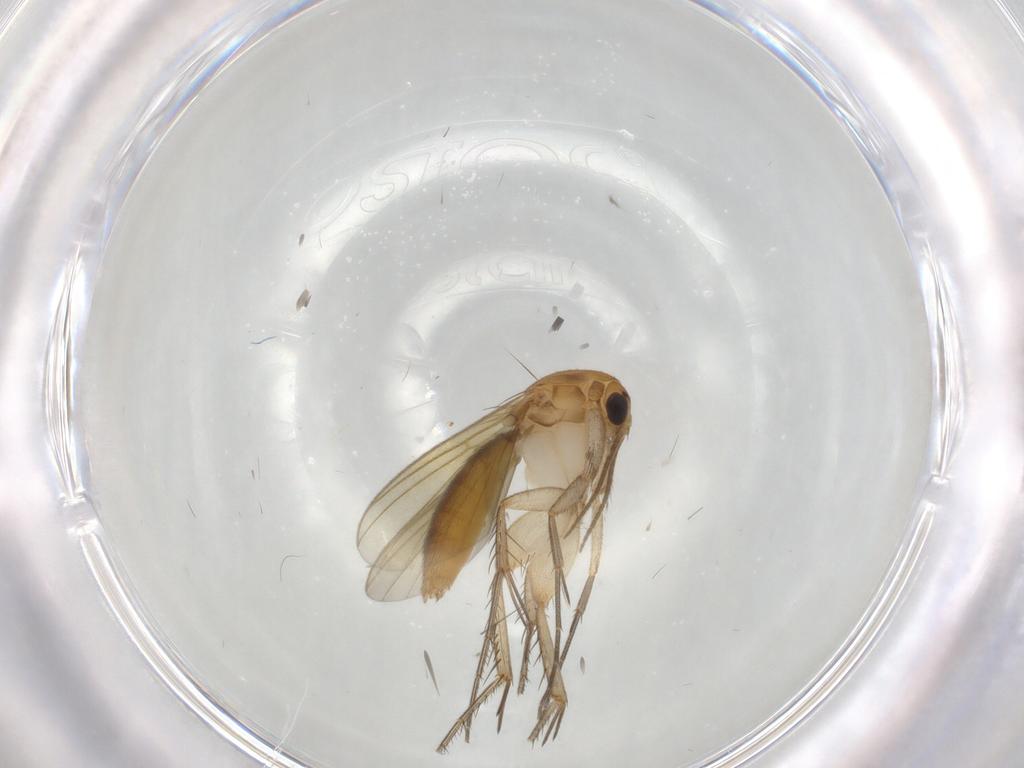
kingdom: Animalia
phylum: Arthropoda
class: Insecta
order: Diptera
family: Mycetophilidae
